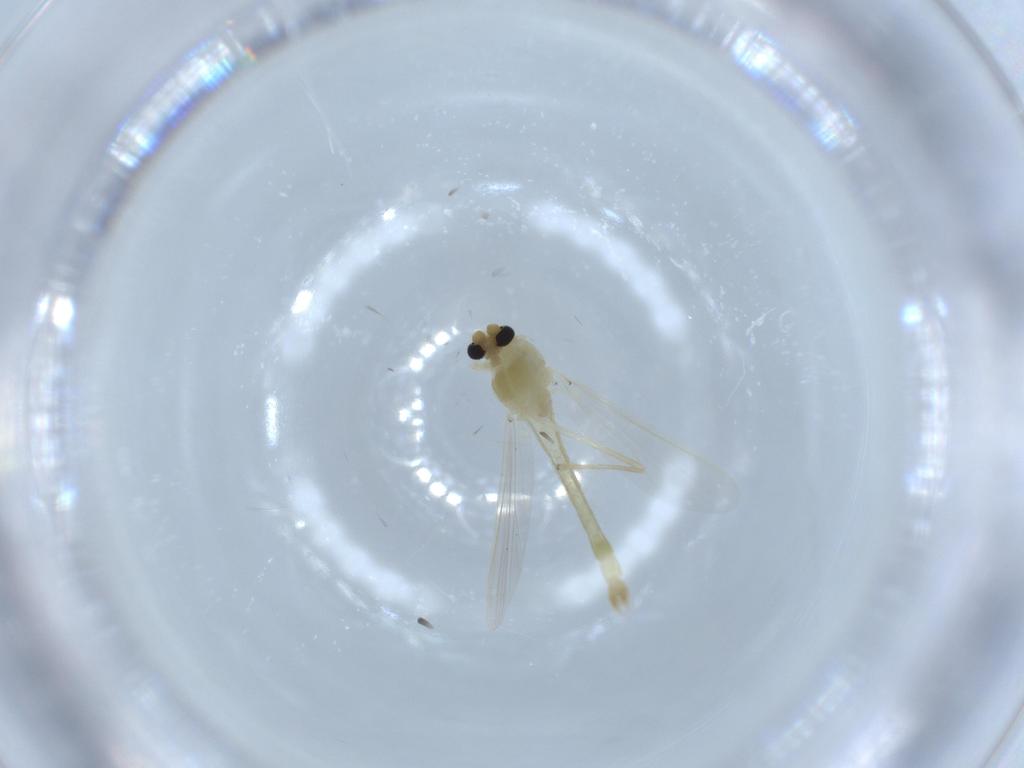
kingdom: Animalia
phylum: Arthropoda
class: Insecta
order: Diptera
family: Chironomidae
